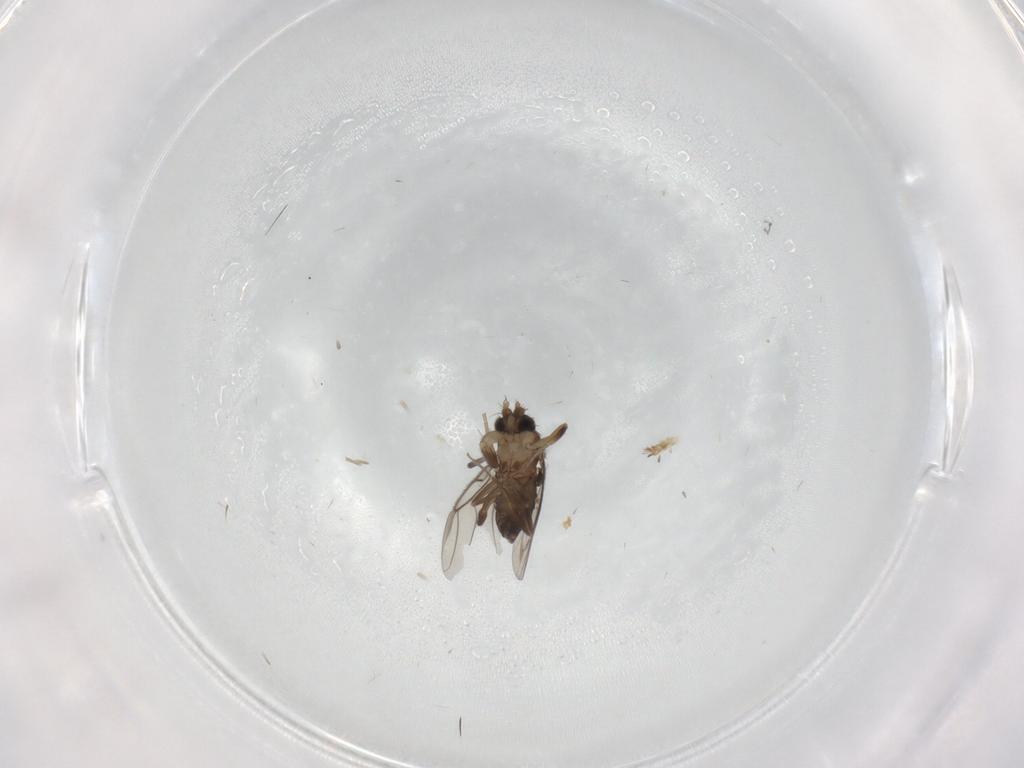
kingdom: Animalia
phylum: Arthropoda
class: Insecta
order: Diptera
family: Phoridae
